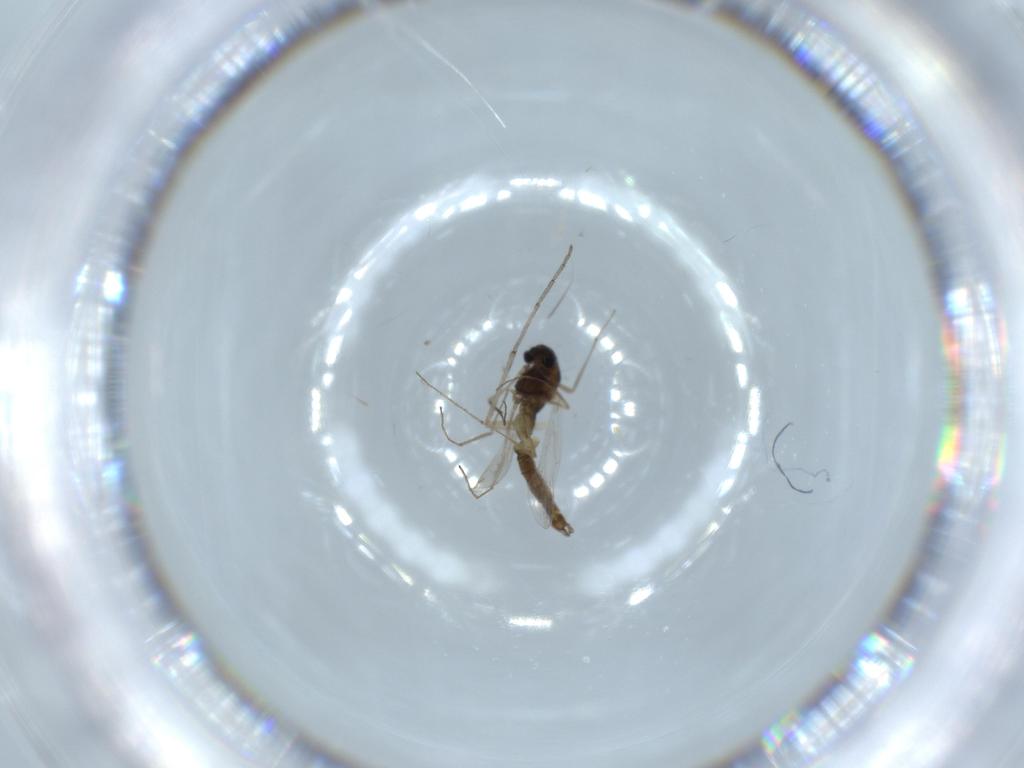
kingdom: Animalia
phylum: Arthropoda
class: Insecta
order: Diptera
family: Chironomidae
